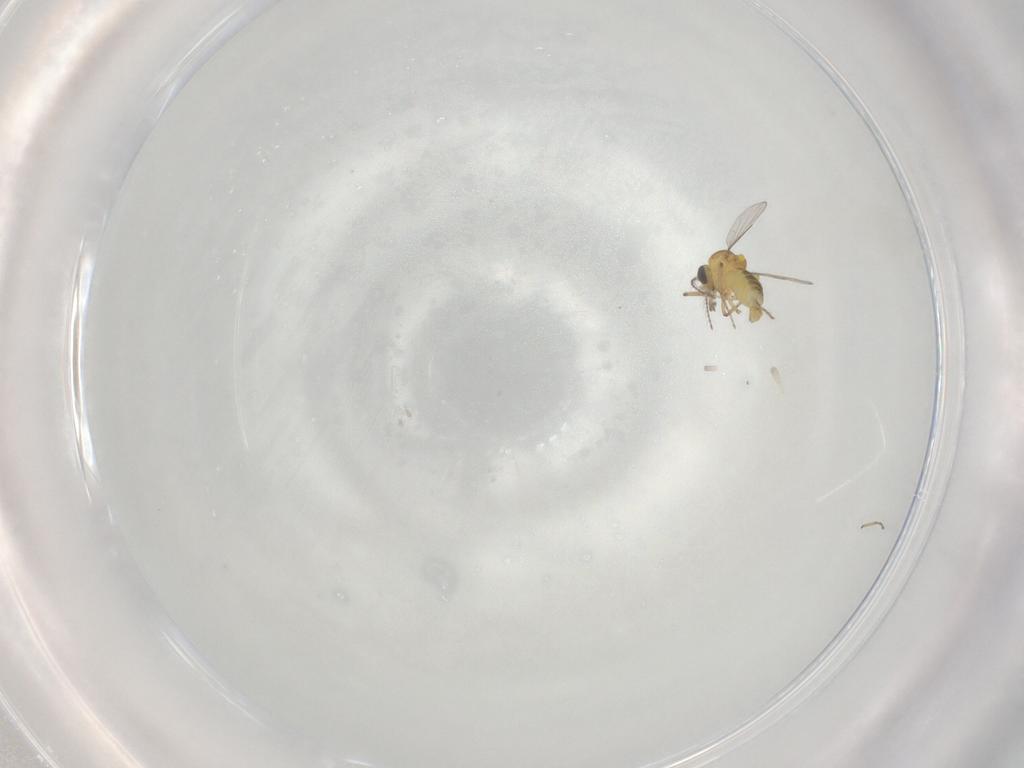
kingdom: Animalia
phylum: Arthropoda
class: Insecta
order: Diptera
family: Ceratopogonidae
